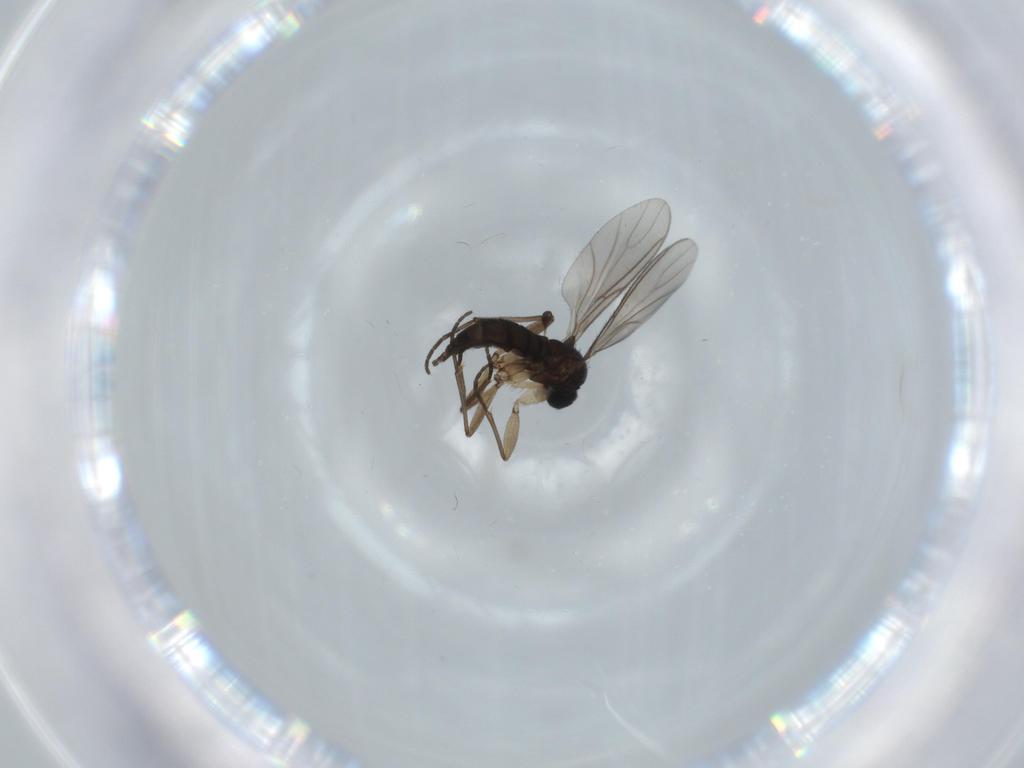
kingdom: Animalia
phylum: Arthropoda
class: Insecta
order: Diptera
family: Sciaridae
